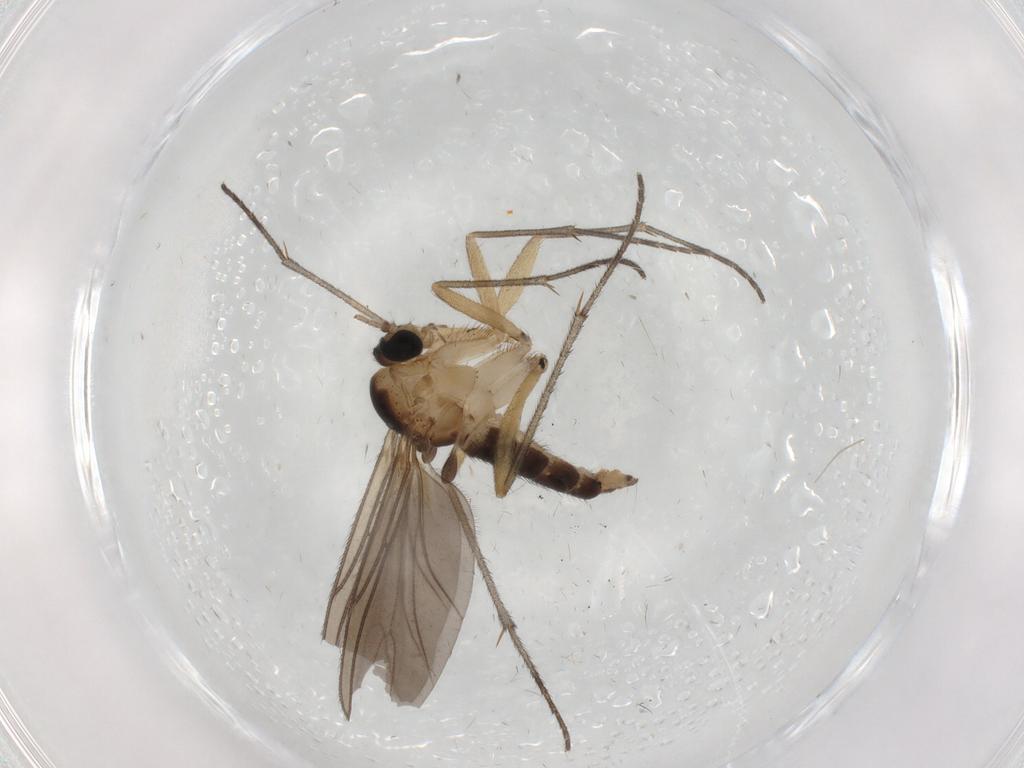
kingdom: Animalia
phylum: Arthropoda
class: Insecta
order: Diptera
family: Sciaridae
